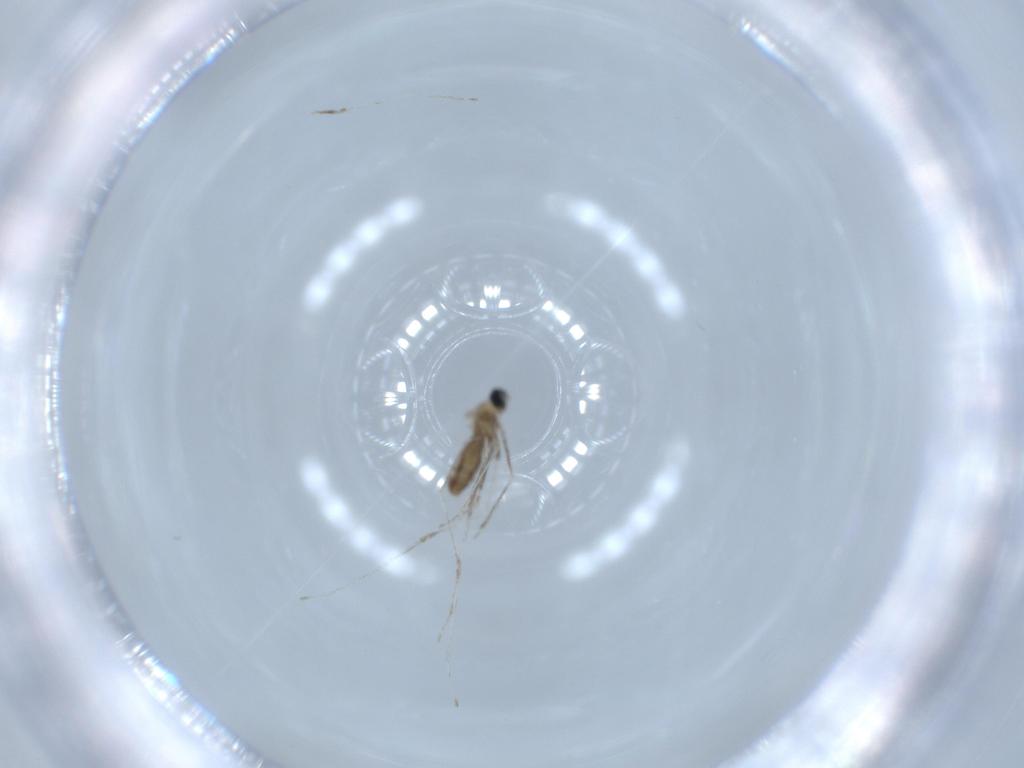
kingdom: Animalia
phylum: Arthropoda
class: Insecta
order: Diptera
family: Cecidomyiidae
